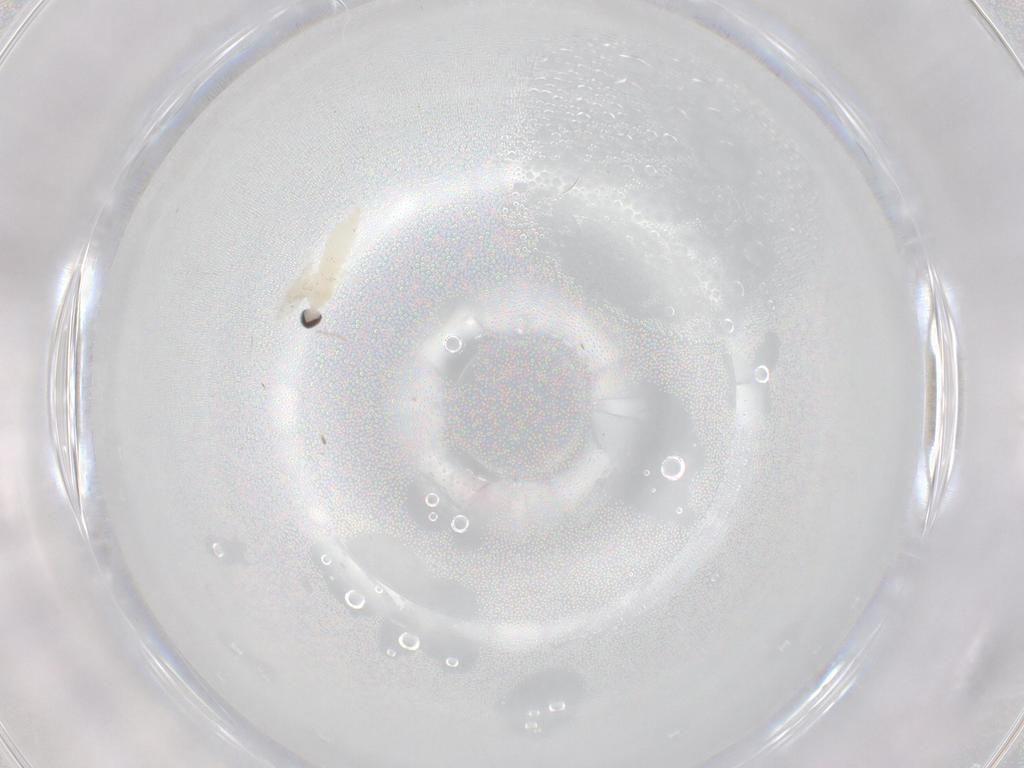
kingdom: Animalia
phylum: Arthropoda
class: Insecta
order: Diptera
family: Cecidomyiidae
